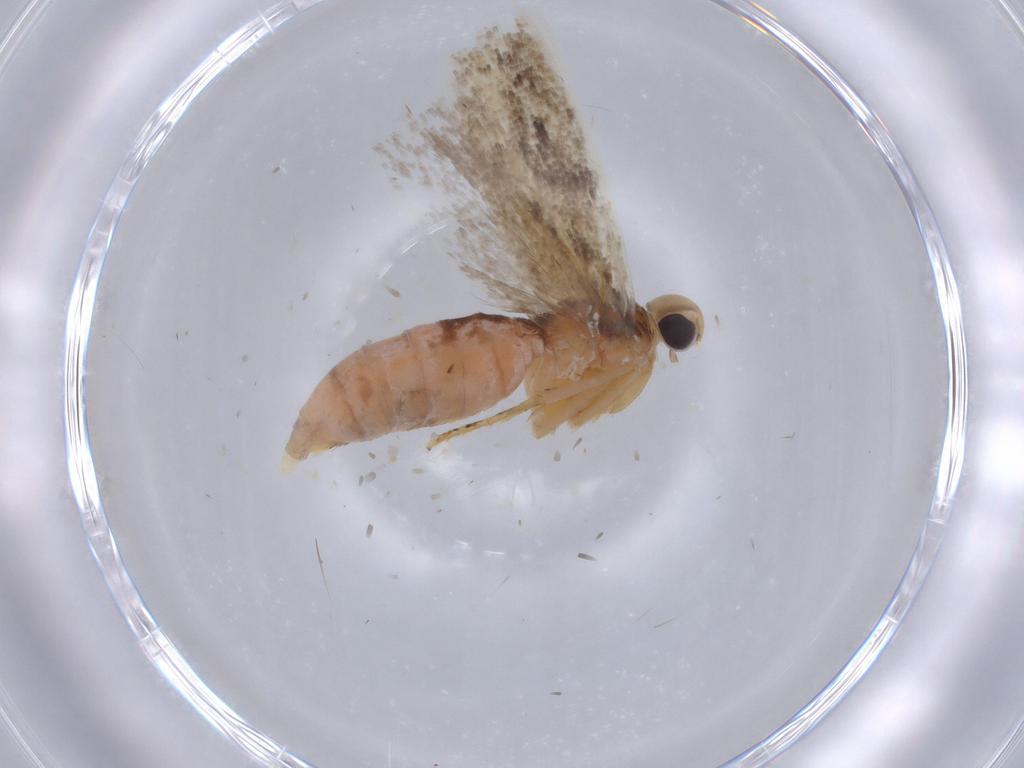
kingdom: Animalia
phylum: Arthropoda
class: Insecta
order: Lepidoptera
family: Gelechiidae
